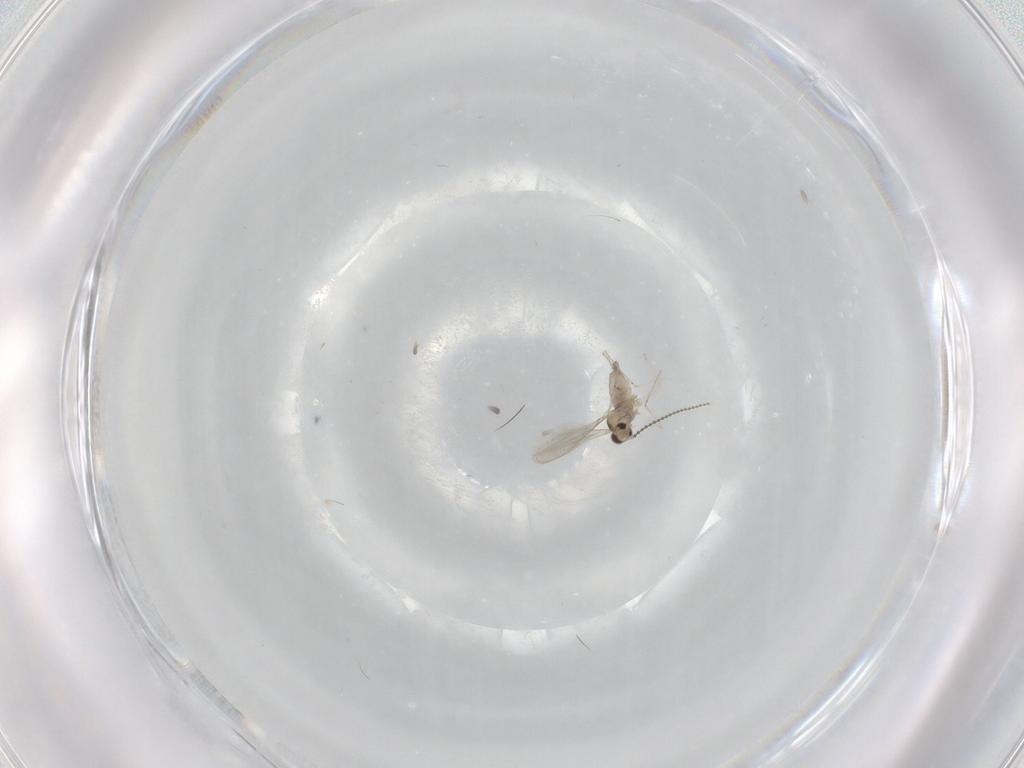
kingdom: Animalia
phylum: Arthropoda
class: Insecta
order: Diptera
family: Cecidomyiidae
